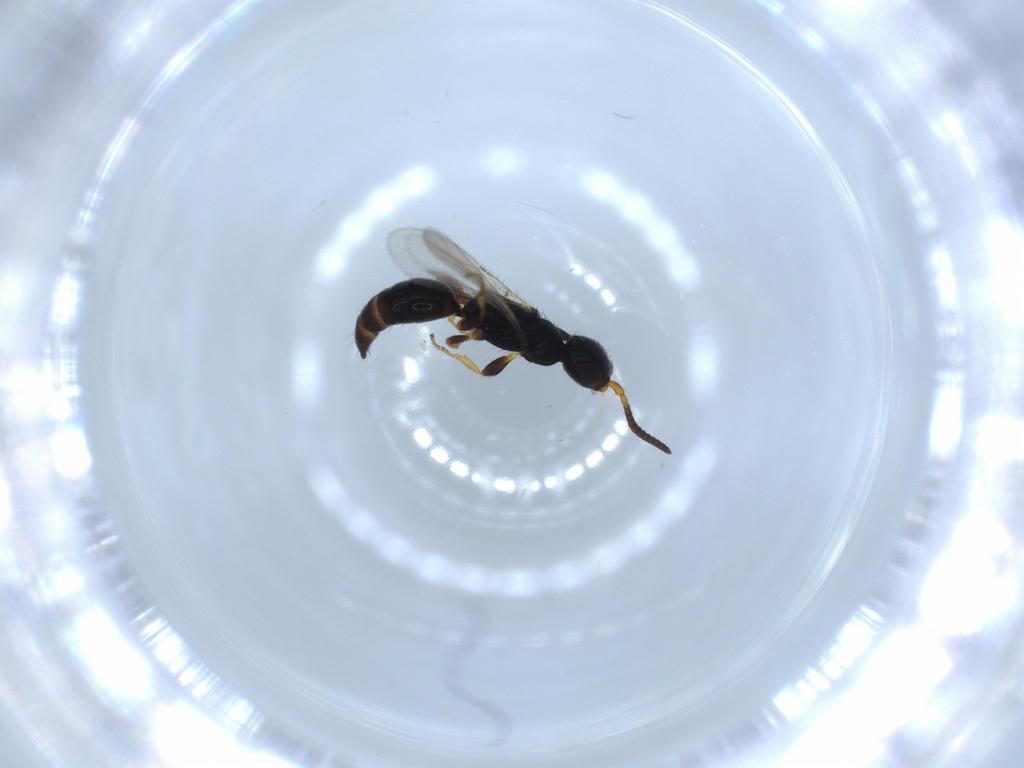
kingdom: Animalia
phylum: Arthropoda
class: Insecta
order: Hymenoptera
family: Bethylidae
